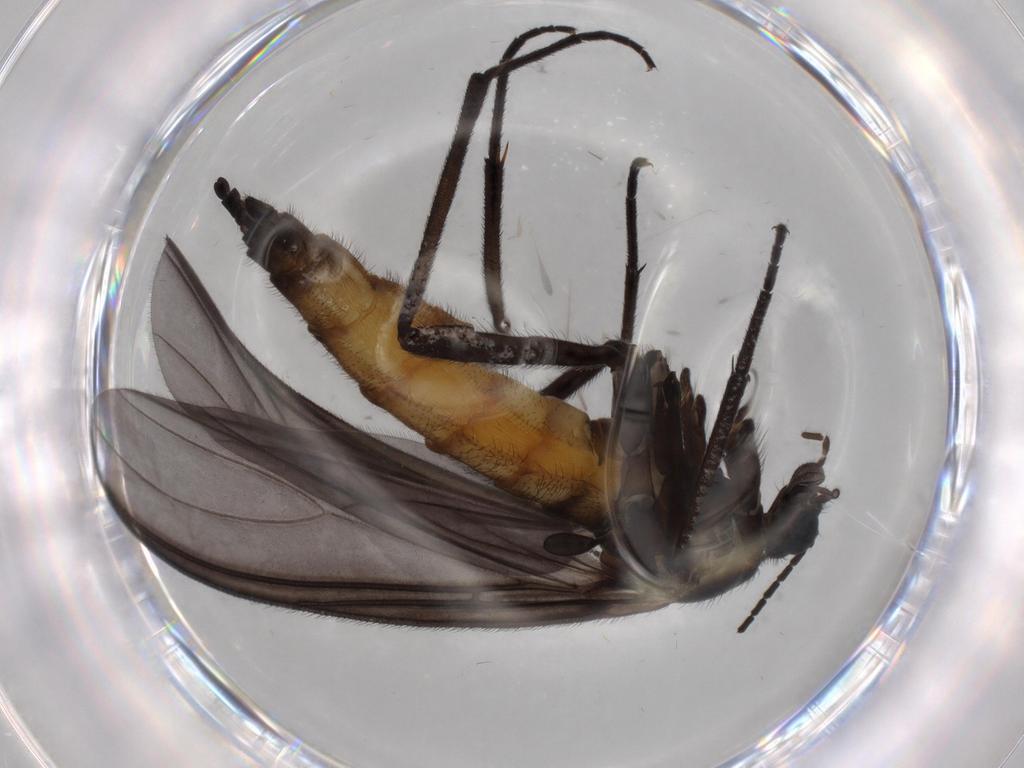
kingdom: Animalia
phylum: Arthropoda
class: Insecta
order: Diptera
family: Cecidomyiidae
